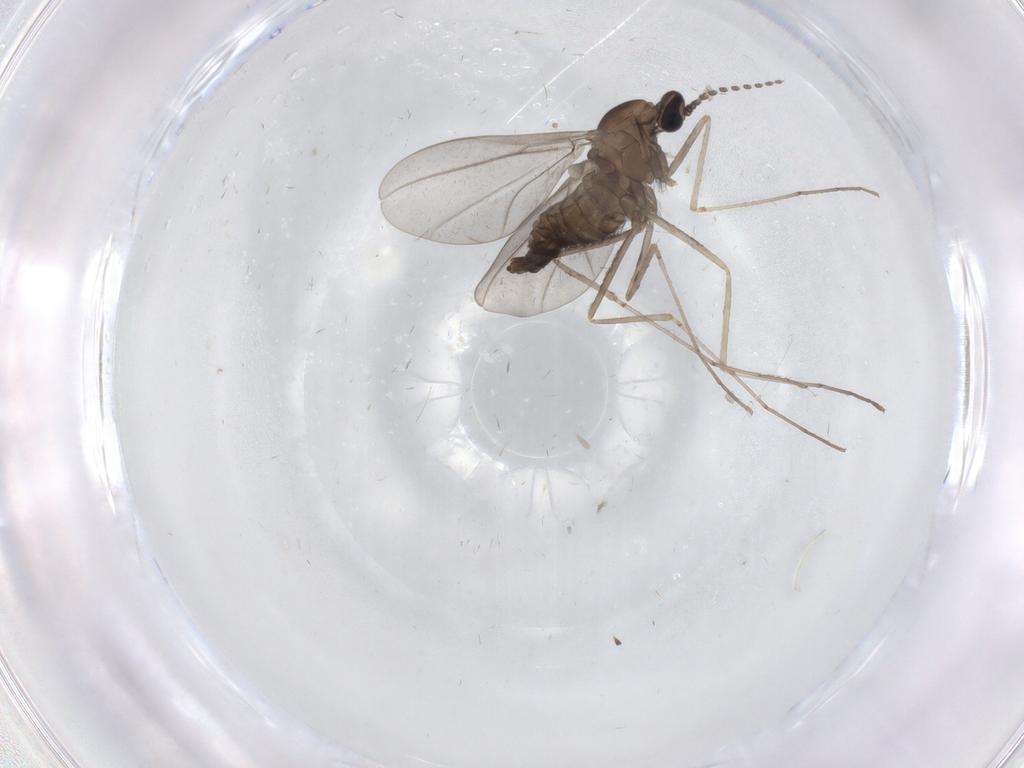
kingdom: Animalia
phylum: Arthropoda
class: Insecta
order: Diptera
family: Cecidomyiidae
